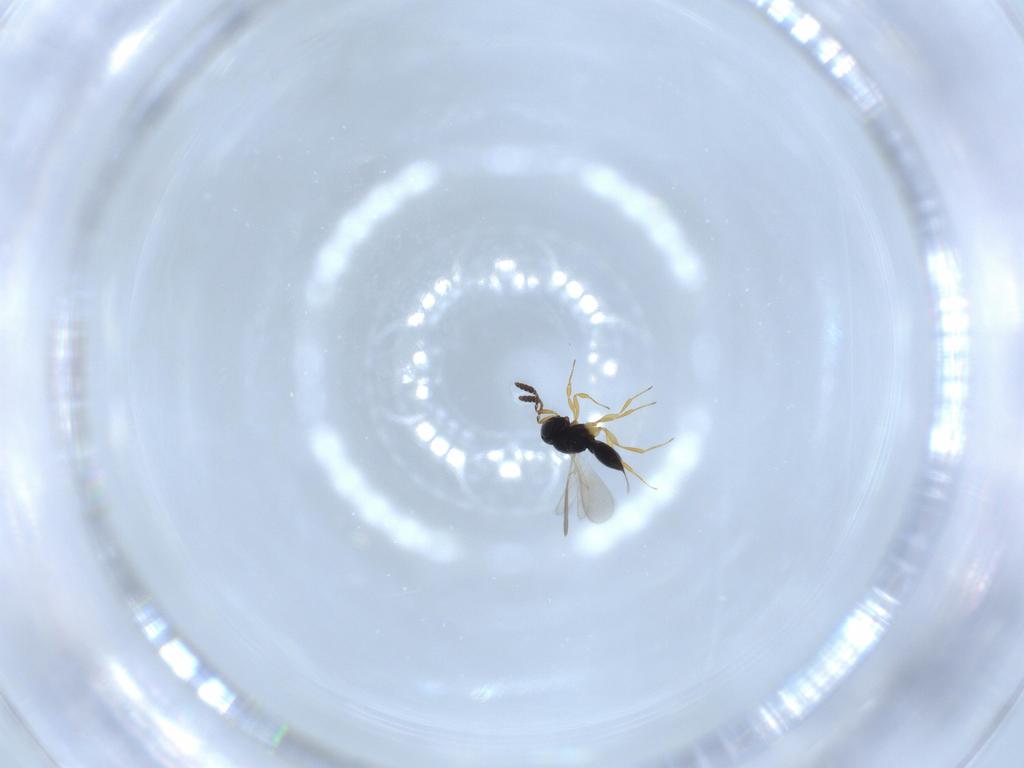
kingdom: Animalia
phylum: Arthropoda
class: Insecta
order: Hymenoptera
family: Scelionidae
